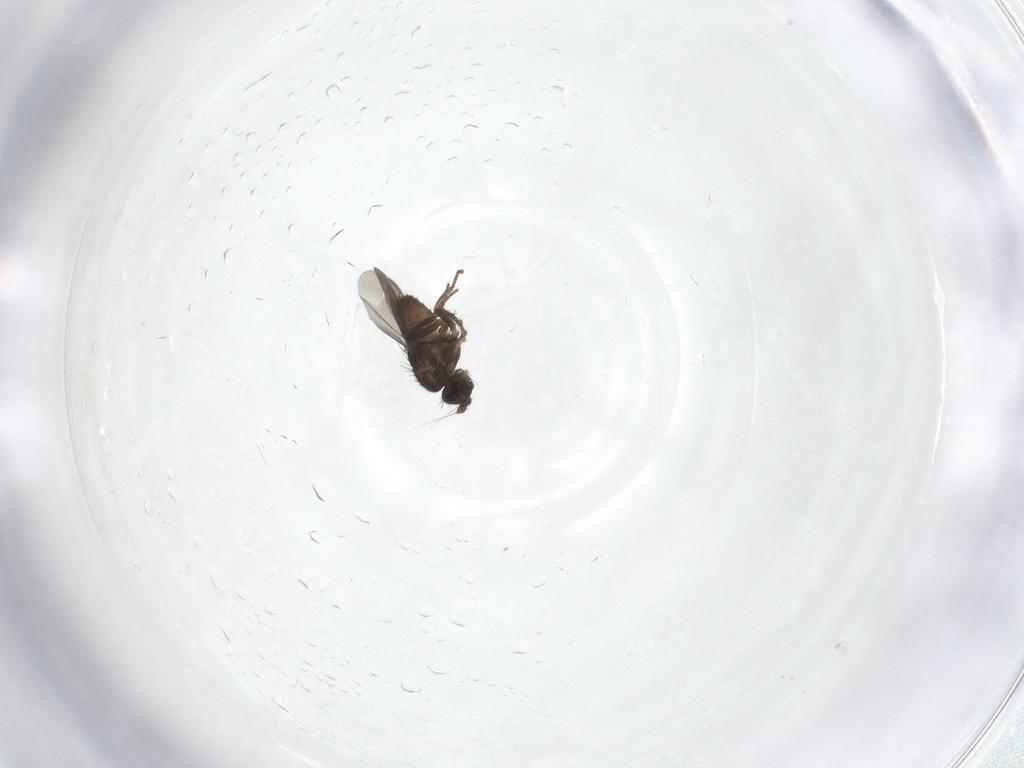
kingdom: Animalia
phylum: Arthropoda
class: Insecta
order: Diptera
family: Sphaeroceridae
